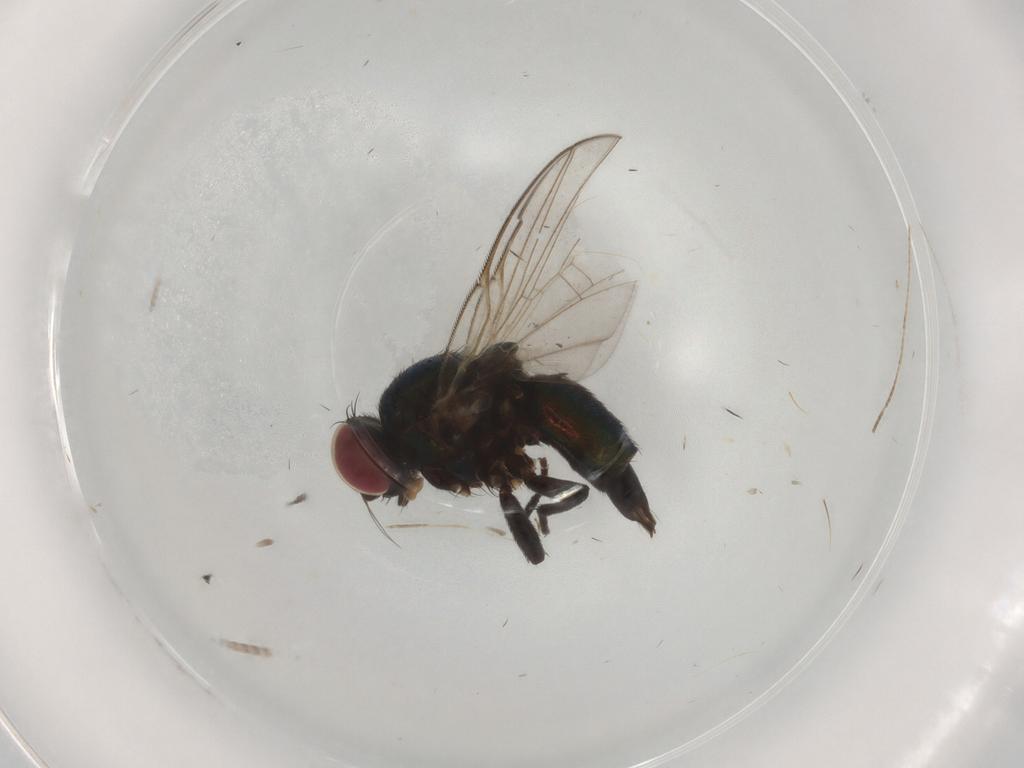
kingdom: Animalia
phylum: Arthropoda
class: Insecta
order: Diptera
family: Agromyzidae
